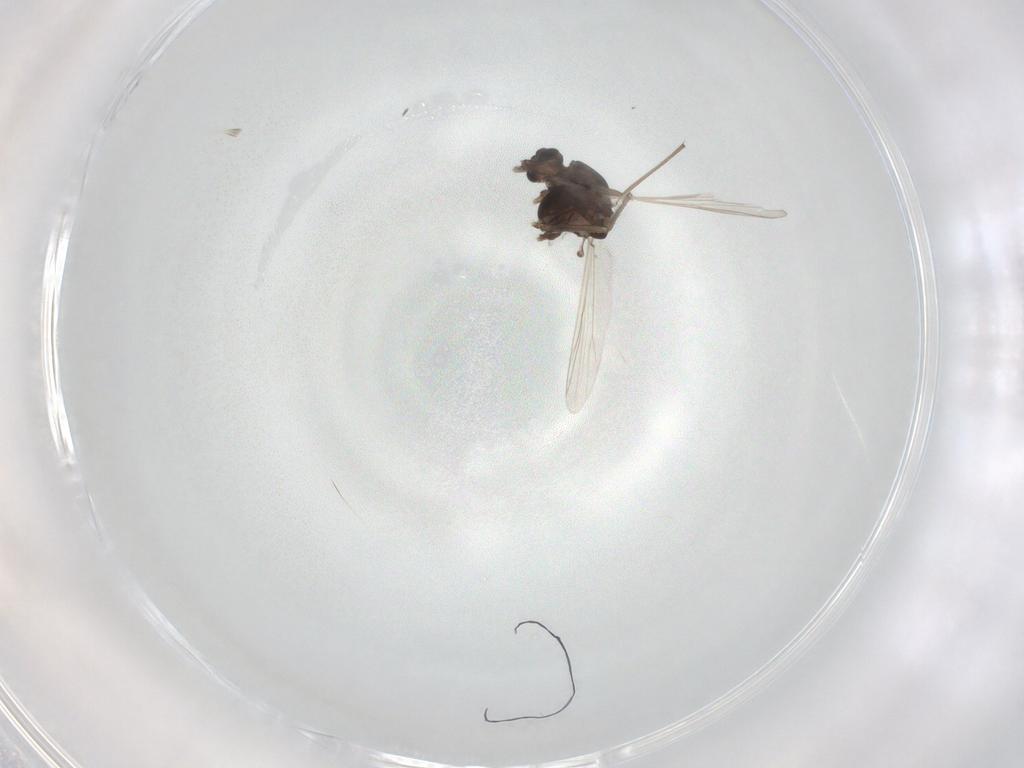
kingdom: Animalia
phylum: Arthropoda
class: Insecta
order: Diptera
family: Chironomidae
